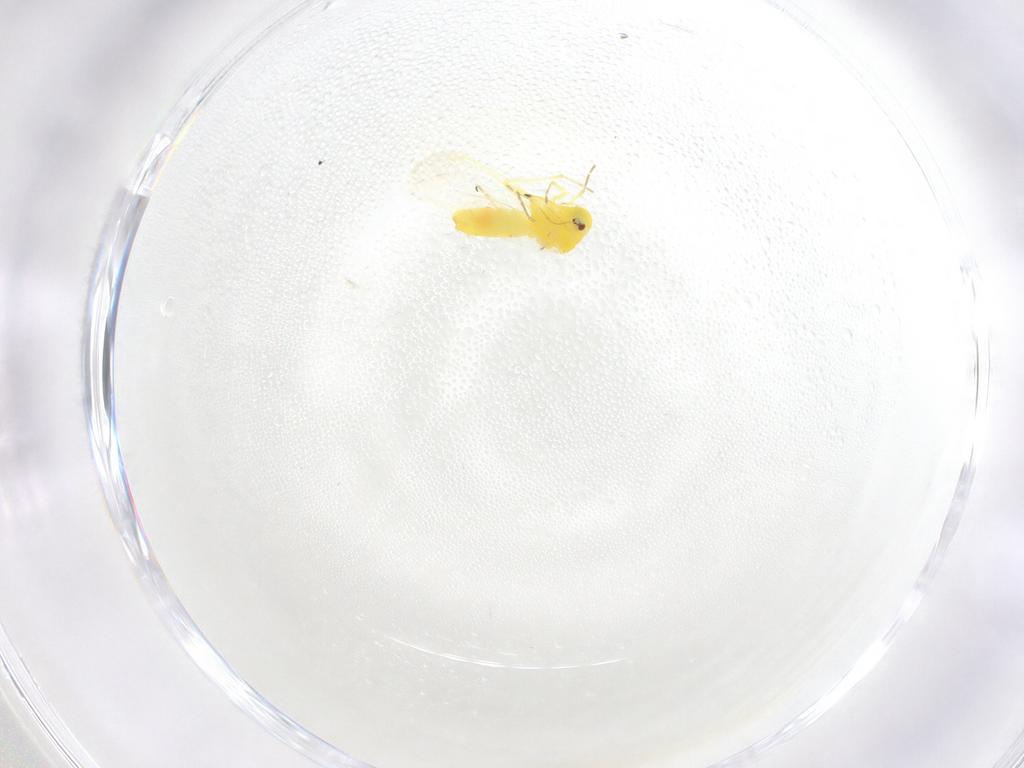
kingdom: Animalia
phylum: Arthropoda
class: Insecta
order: Hemiptera
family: Aleyrodidae
